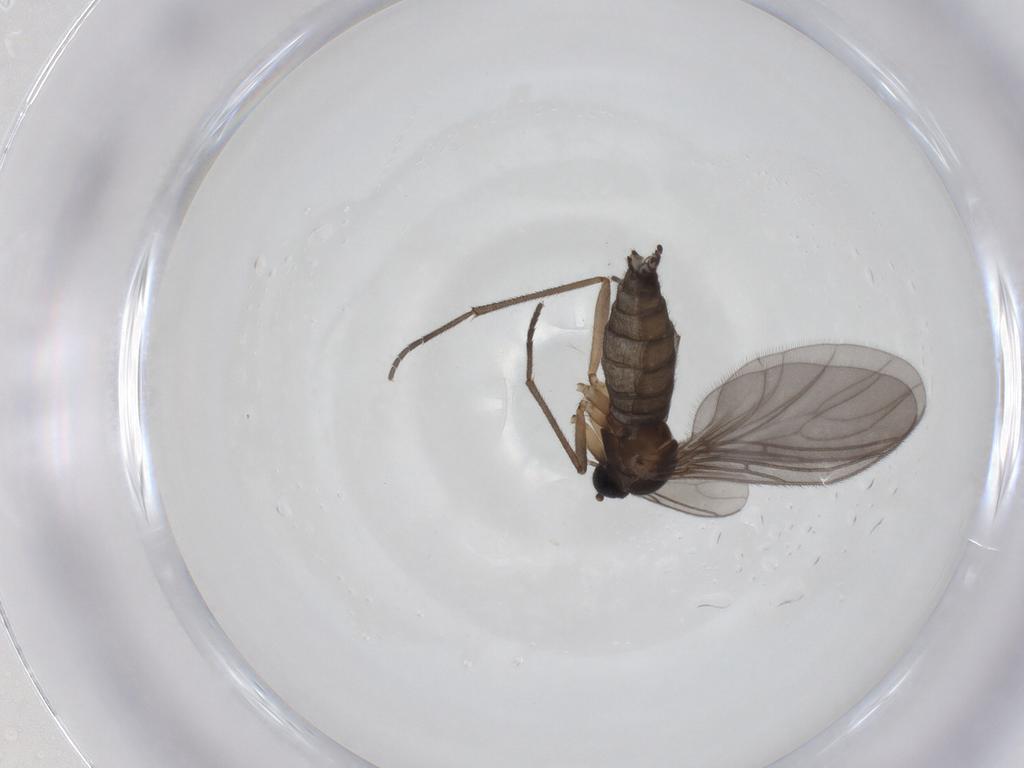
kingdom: Animalia
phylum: Arthropoda
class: Insecta
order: Diptera
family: Sciaridae
